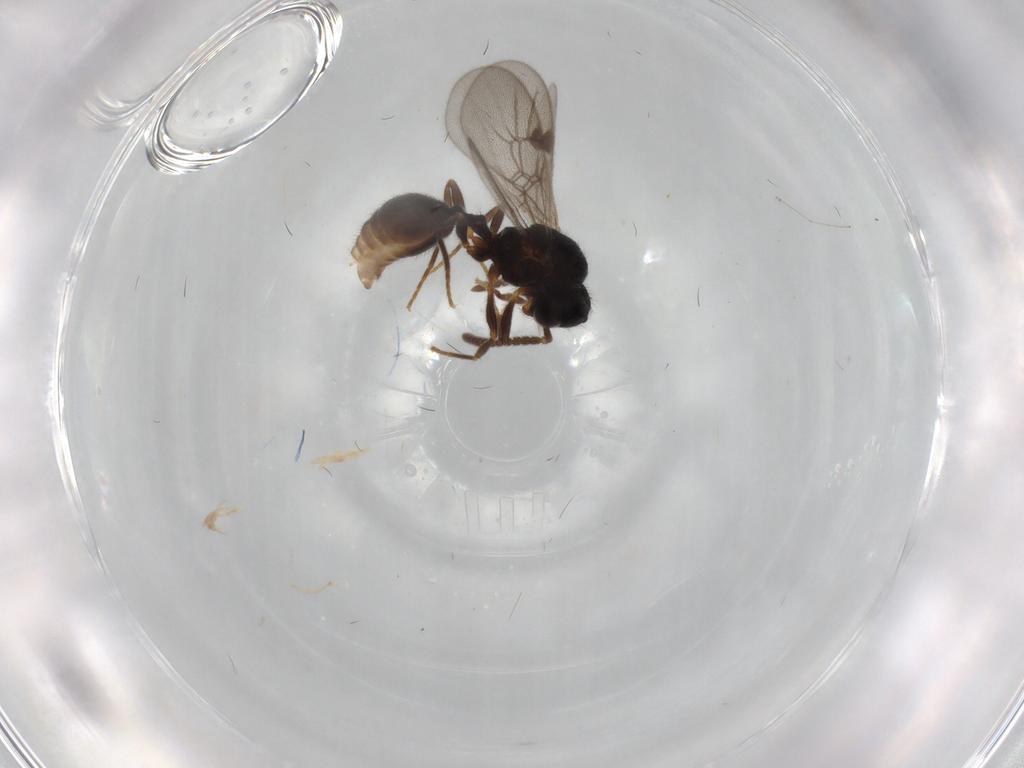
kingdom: Animalia
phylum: Arthropoda
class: Insecta
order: Hymenoptera
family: Formicidae
